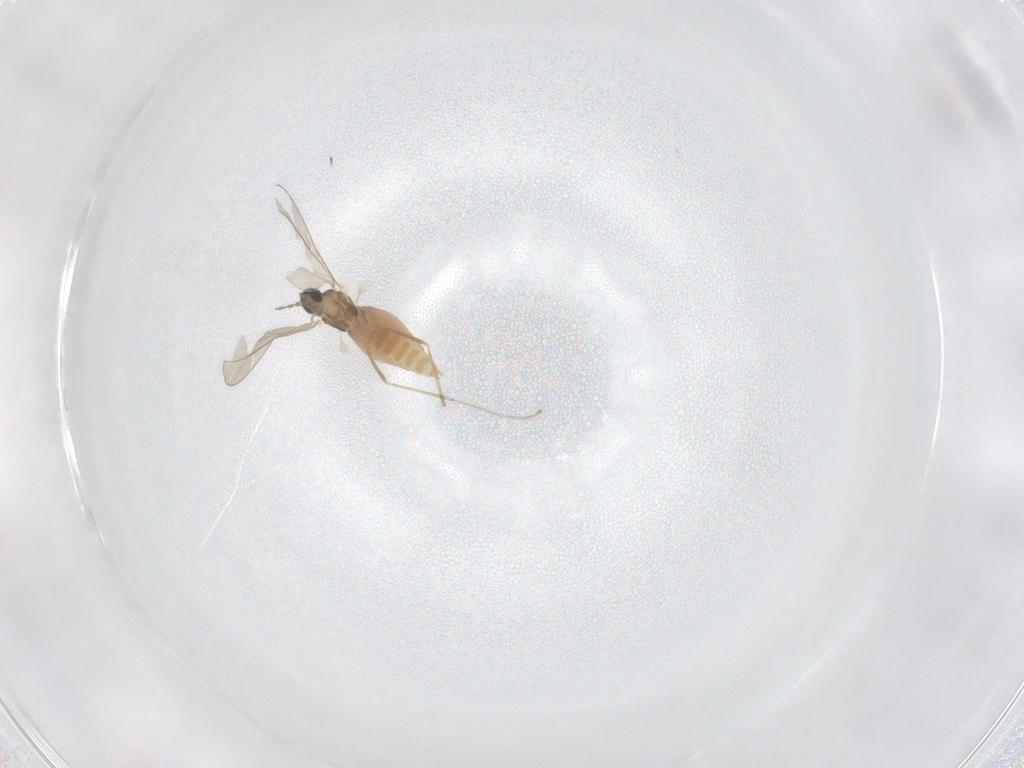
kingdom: Animalia
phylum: Arthropoda
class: Insecta
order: Diptera
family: Cecidomyiidae
